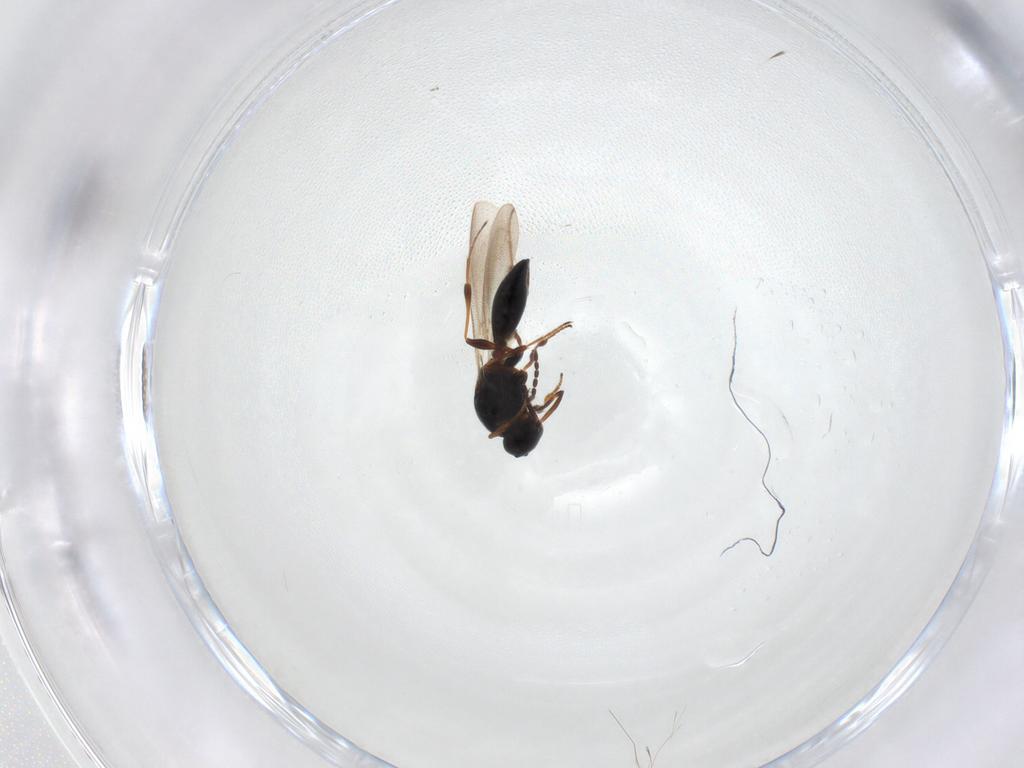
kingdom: Animalia
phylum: Arthropoda
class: Insecta
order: Hymenoptera
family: Platygastridae
